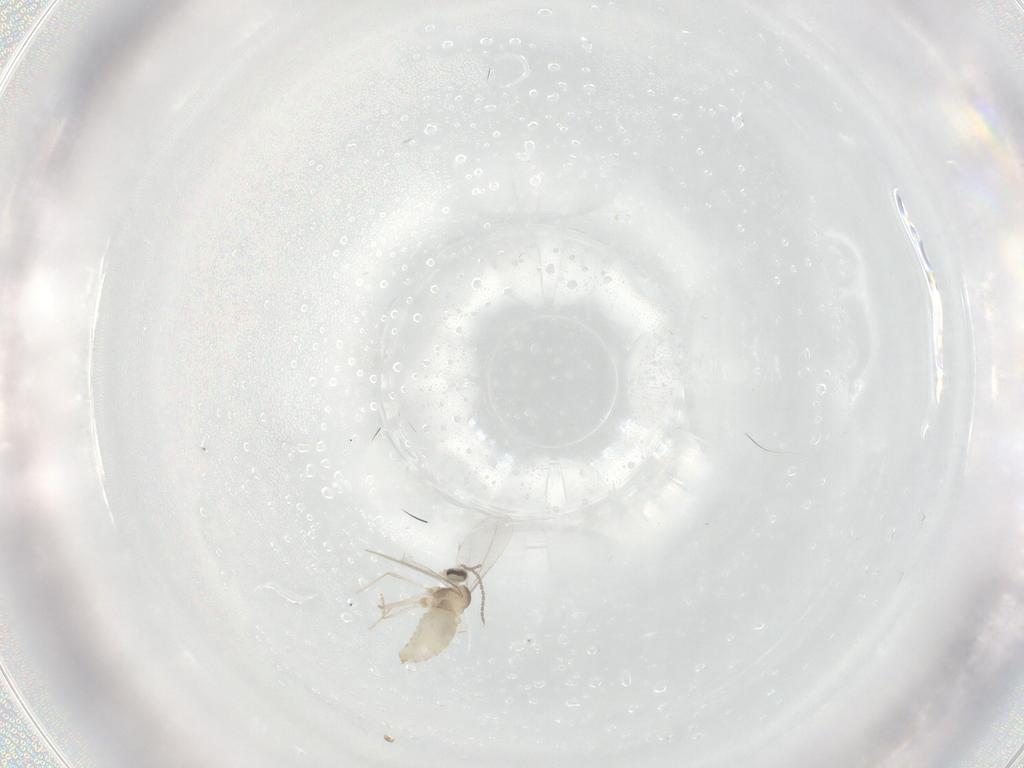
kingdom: Animalia
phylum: Arthropoda
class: Insecta
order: Diptera
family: Cecidomyiidae
